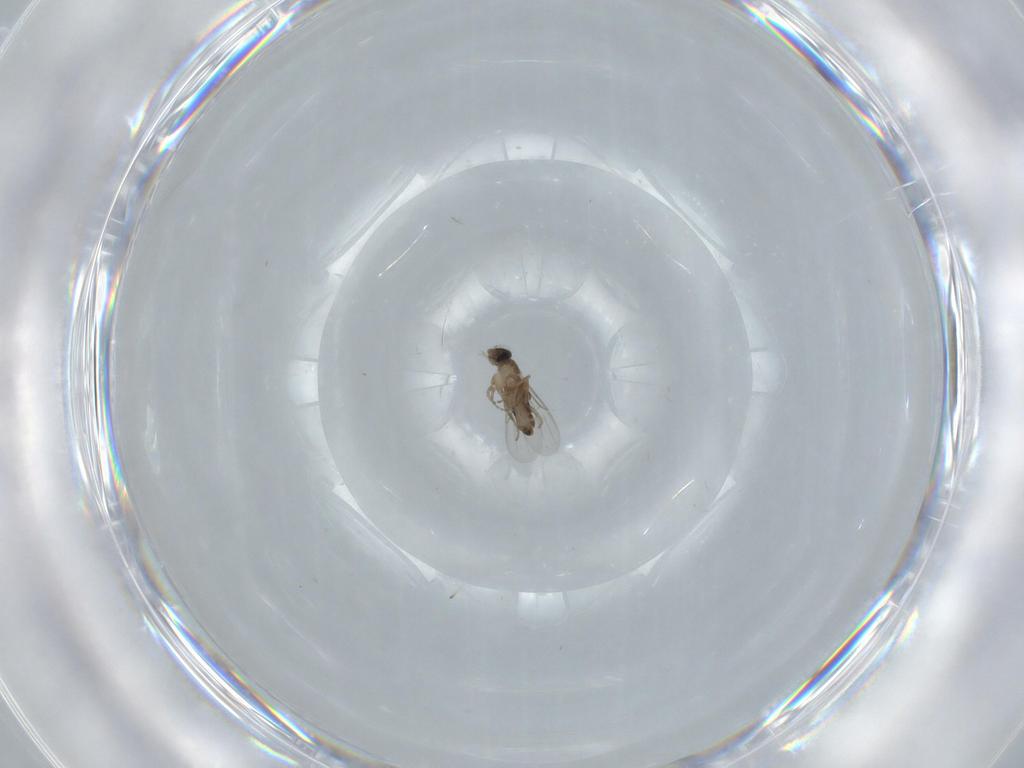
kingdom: Animalia
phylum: Arthropoda
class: Insecta
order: Diptera
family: Phoridae
